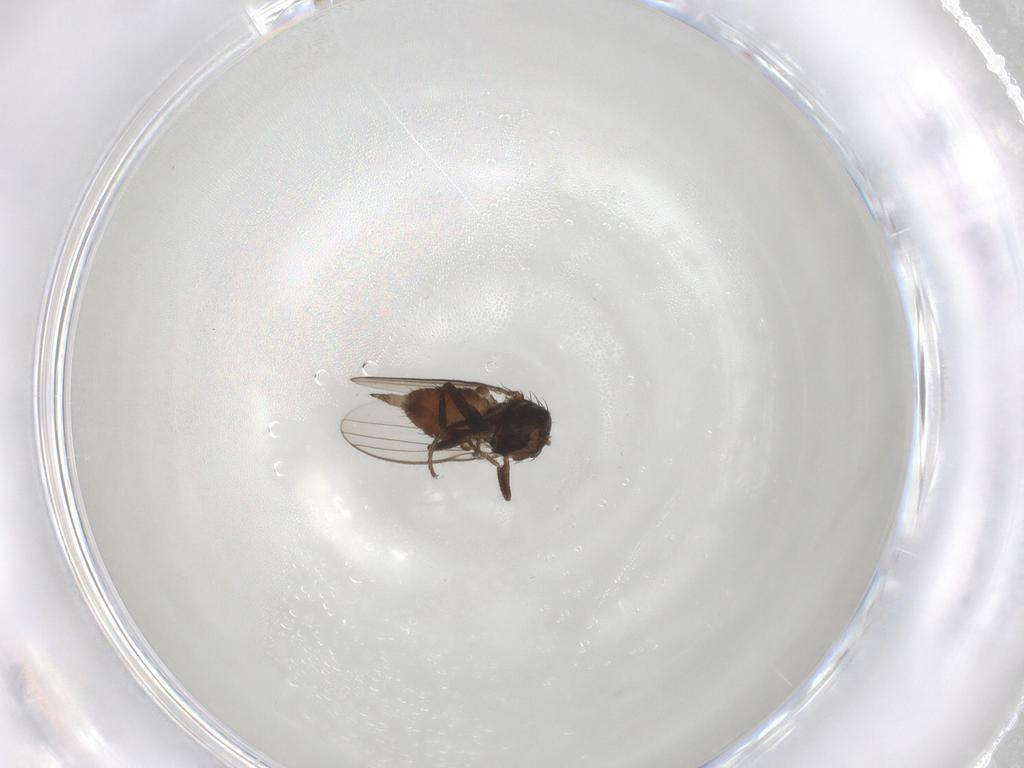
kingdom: Animalia
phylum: Arthropoda
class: Insecta
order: Diptera
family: Milichiidae
